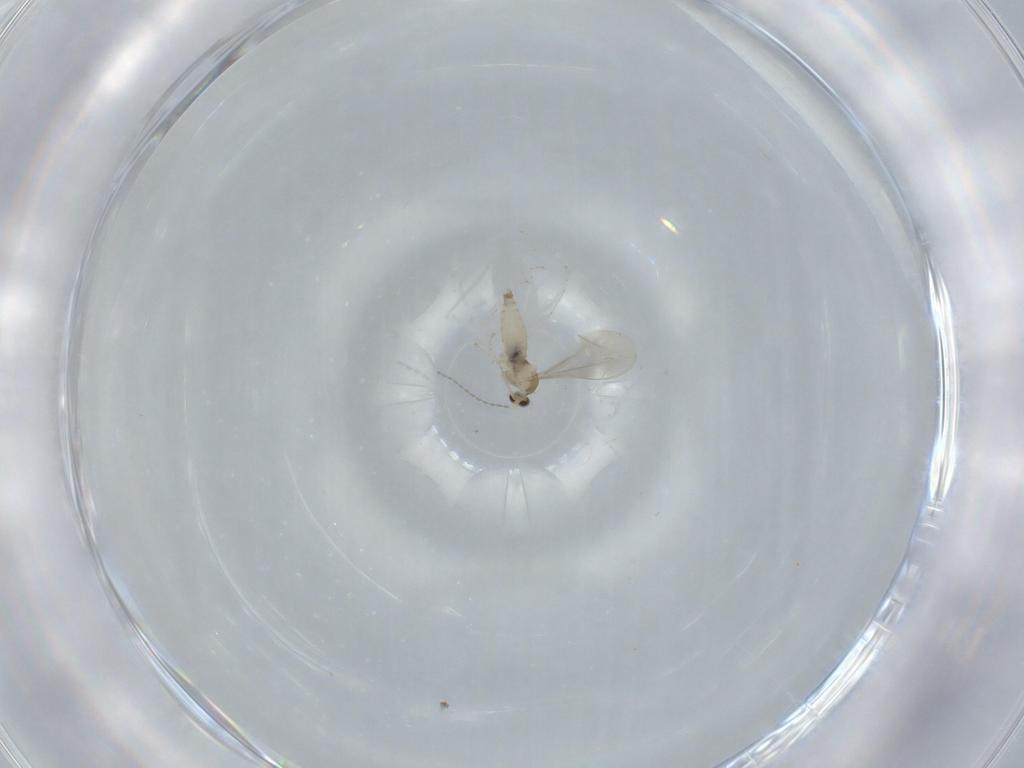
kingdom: Animalia
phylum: Arthropoda
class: Insecta
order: Diptera
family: Cecidomyiidae
